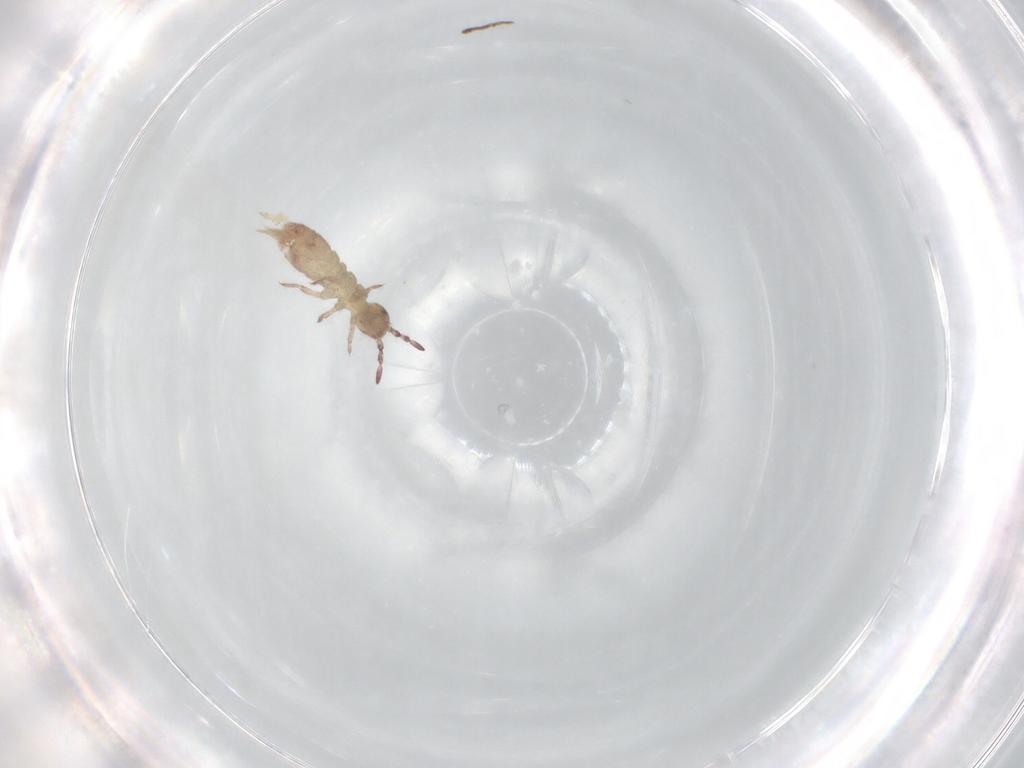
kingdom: Animalia
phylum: Arthropoda
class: Collembola
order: Entomobryomorpha
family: Isotomidae
